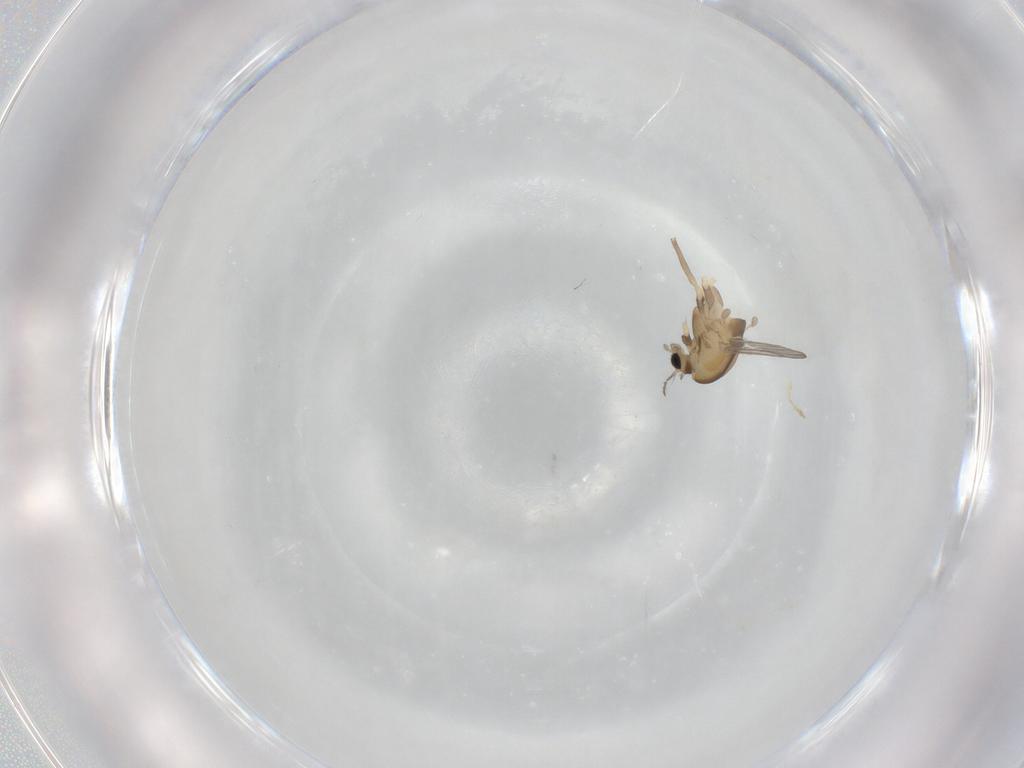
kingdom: Animalia
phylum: Arthropoda
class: Insecta
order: Diptera
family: Chironomidae
